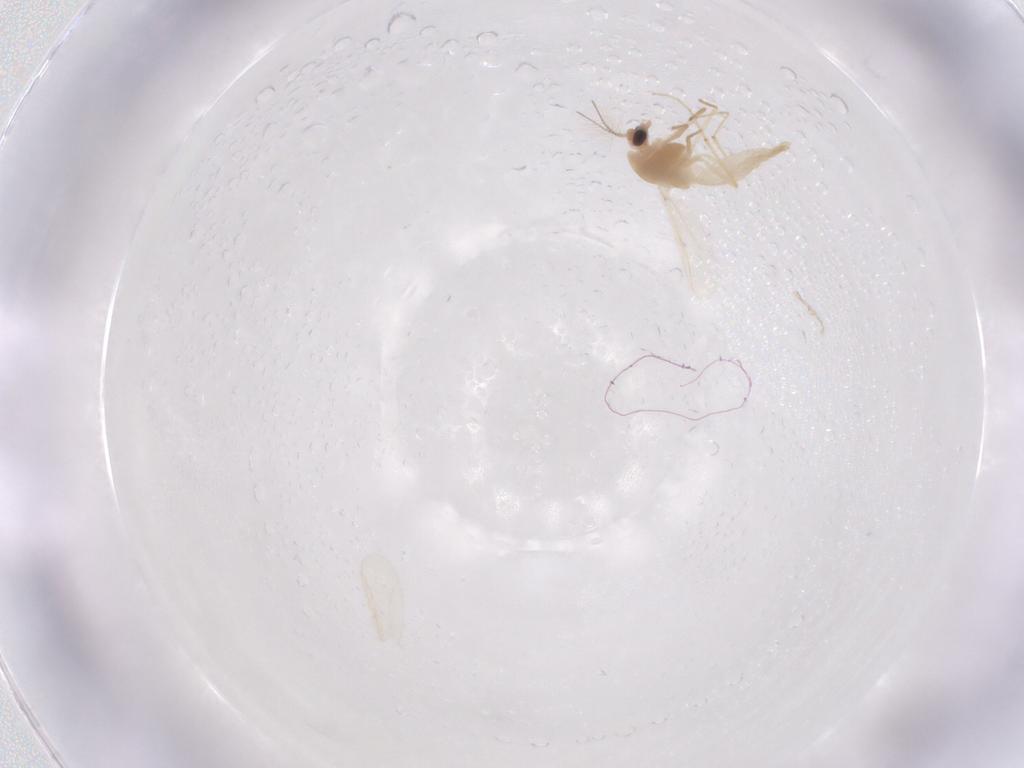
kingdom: Animalia
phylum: Arthropoda
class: Insecta
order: Diptera
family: Chironomidae
